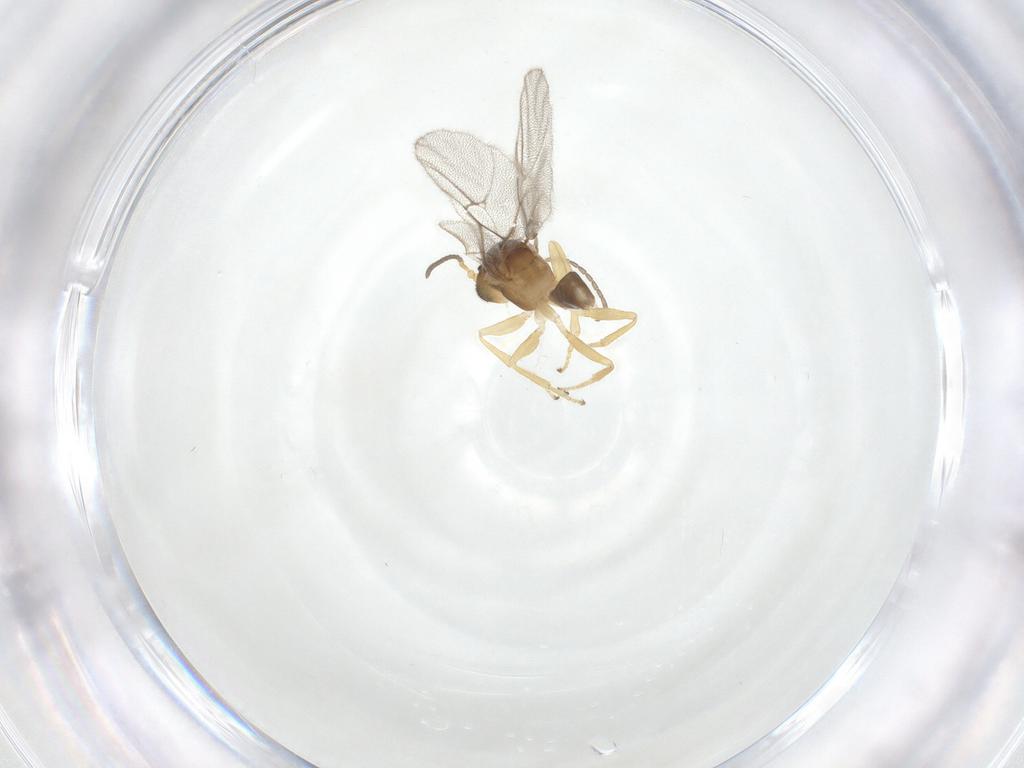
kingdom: Animalia
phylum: Arthropoda
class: Insecta
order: Hymenoptera
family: Cynipidae
